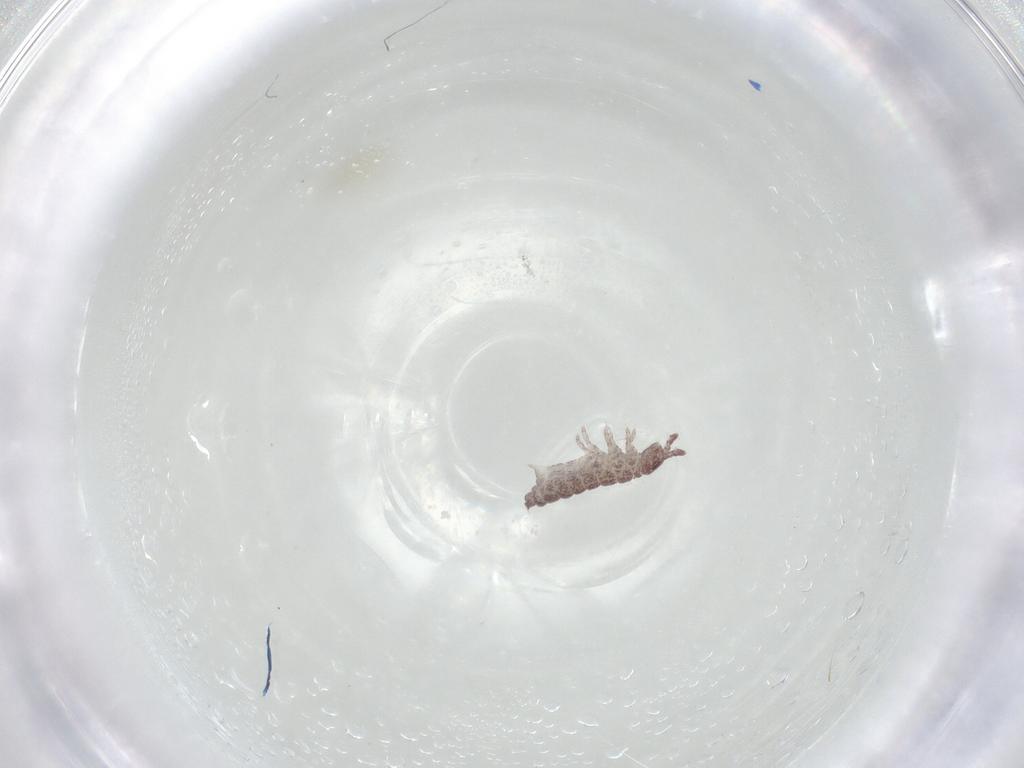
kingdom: Animalia
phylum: Arthropoda
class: Collembola
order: Poduromorpha
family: Hypogastruridae
